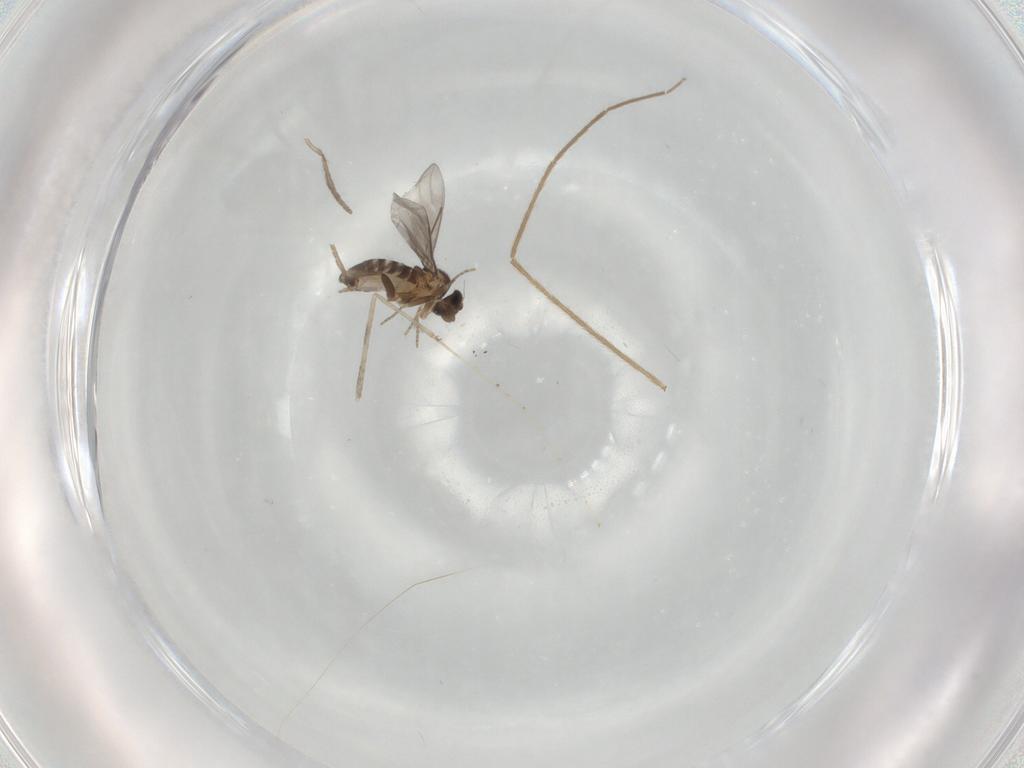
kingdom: Animalia
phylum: Arthropoda
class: Insecta
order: Diptera
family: Chironomidae
